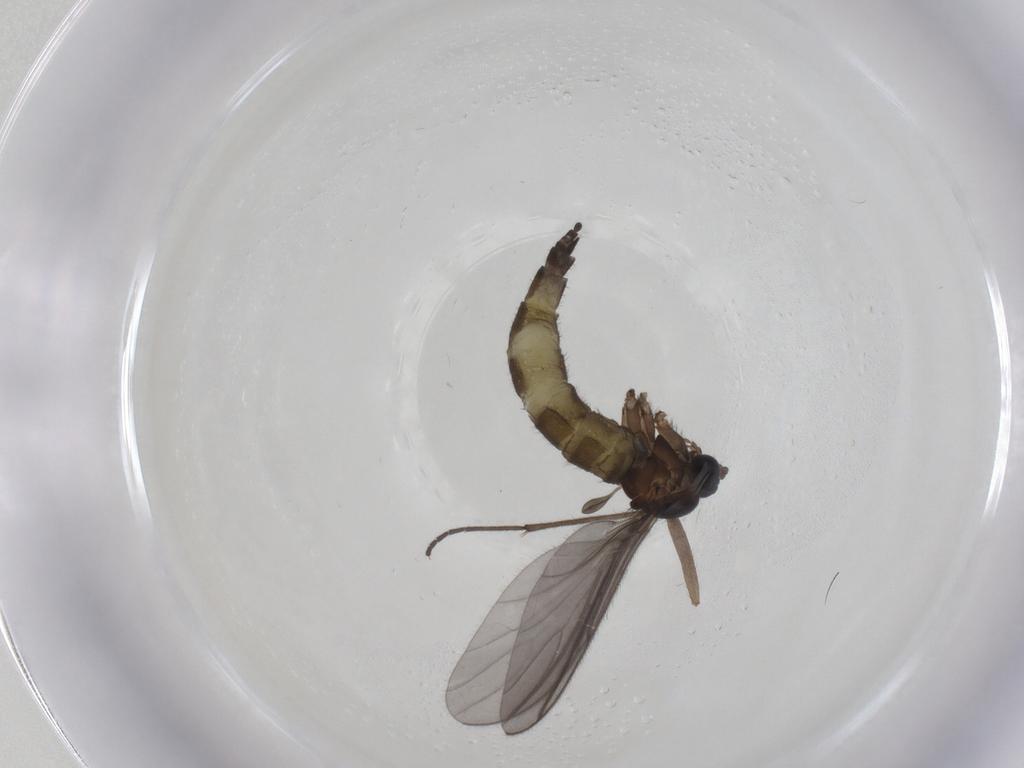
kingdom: Animalia
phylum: Arthropoda
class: Insecta
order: Diptera
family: Sciaridae
